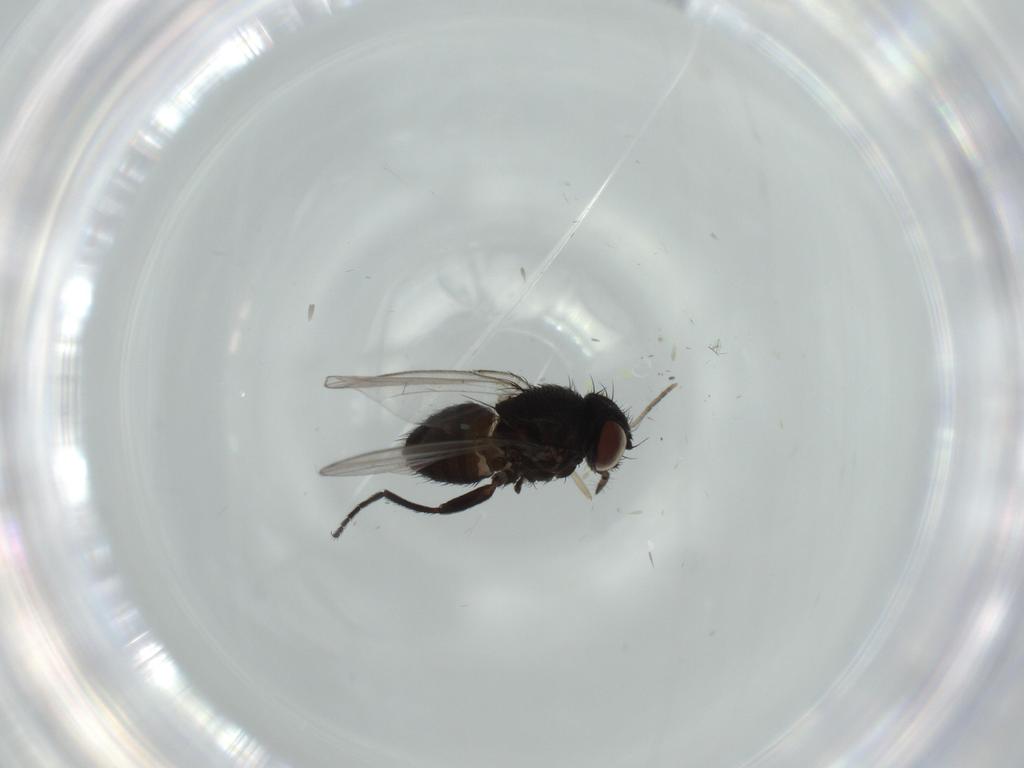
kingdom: Animalia
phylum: Arthropoda
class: Insecta
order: Diptera
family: Milichiidae
